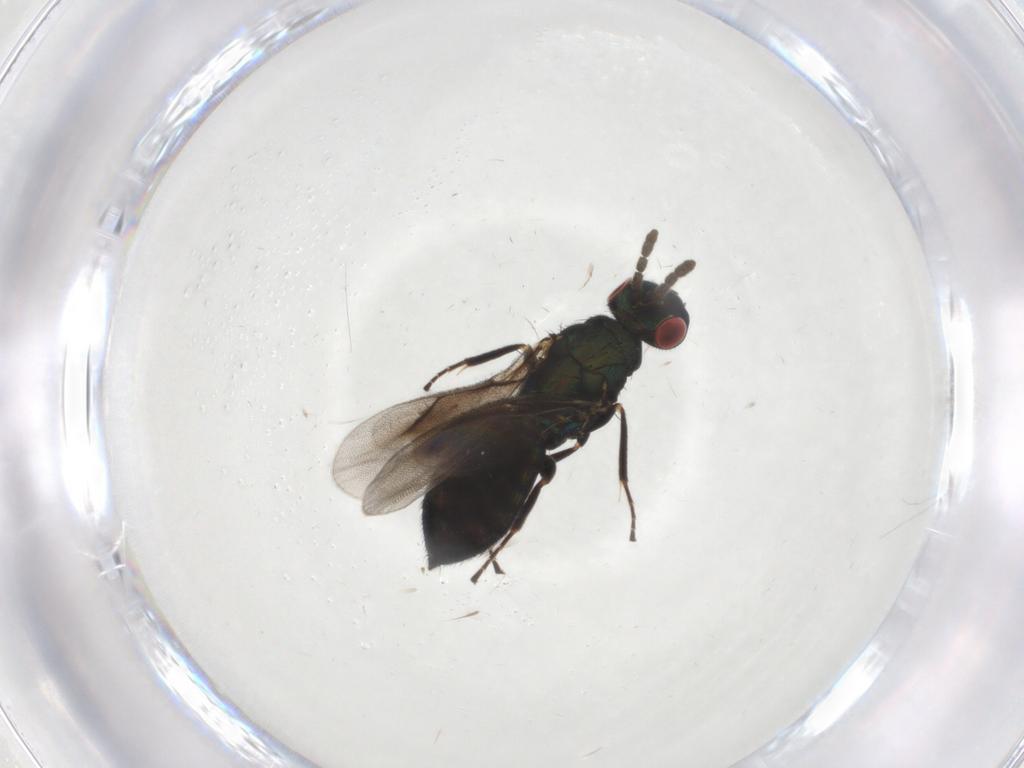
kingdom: Animalia
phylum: Arthropoda
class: Insecta
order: Hymenoptera
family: Eulophidae
